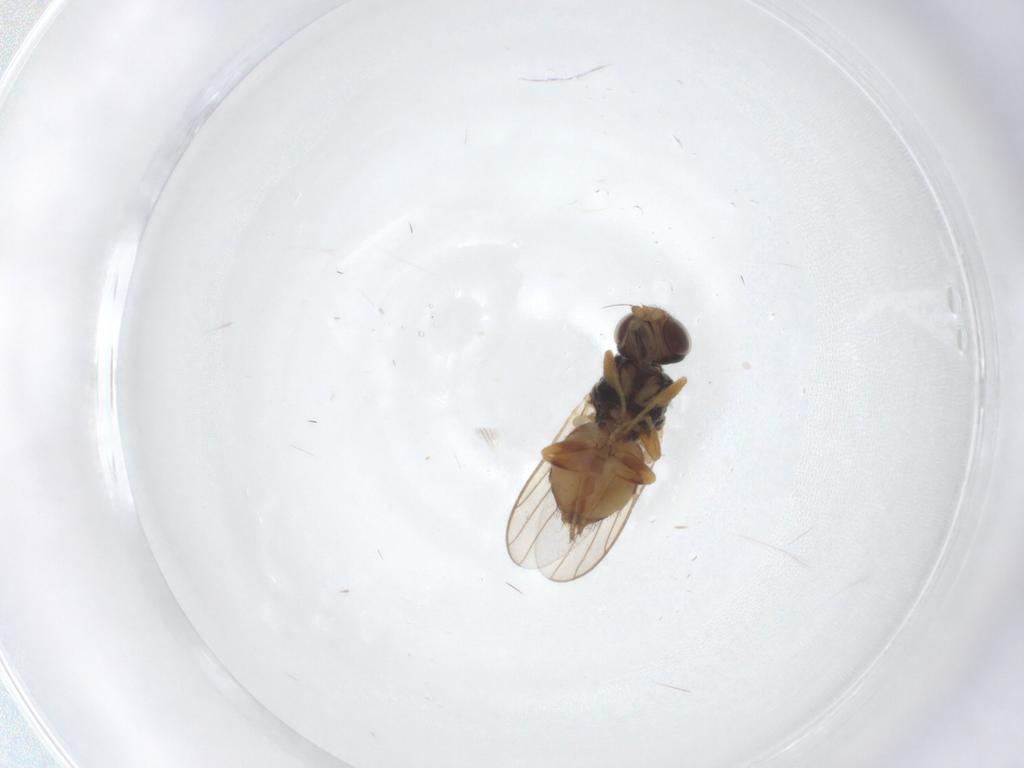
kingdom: Animalia
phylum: Arthropoda
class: Insecta
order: Diptera
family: Chloropidae
